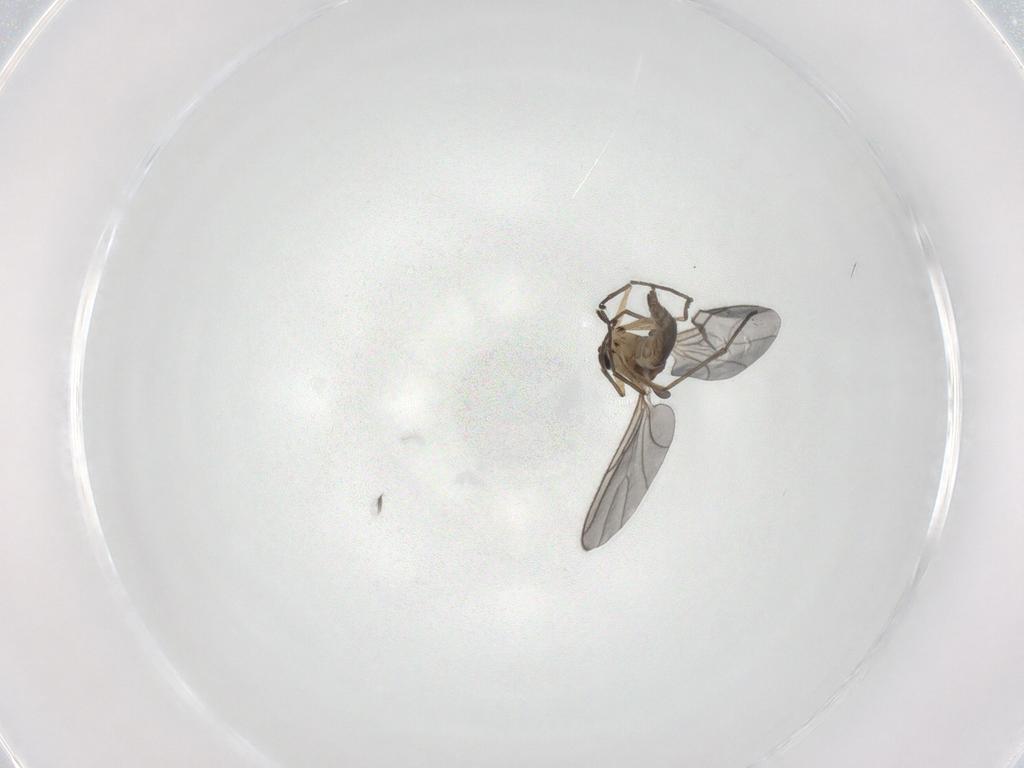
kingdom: Animalia
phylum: Arthropoda
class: Insecta
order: Diptera
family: Sciaridae
